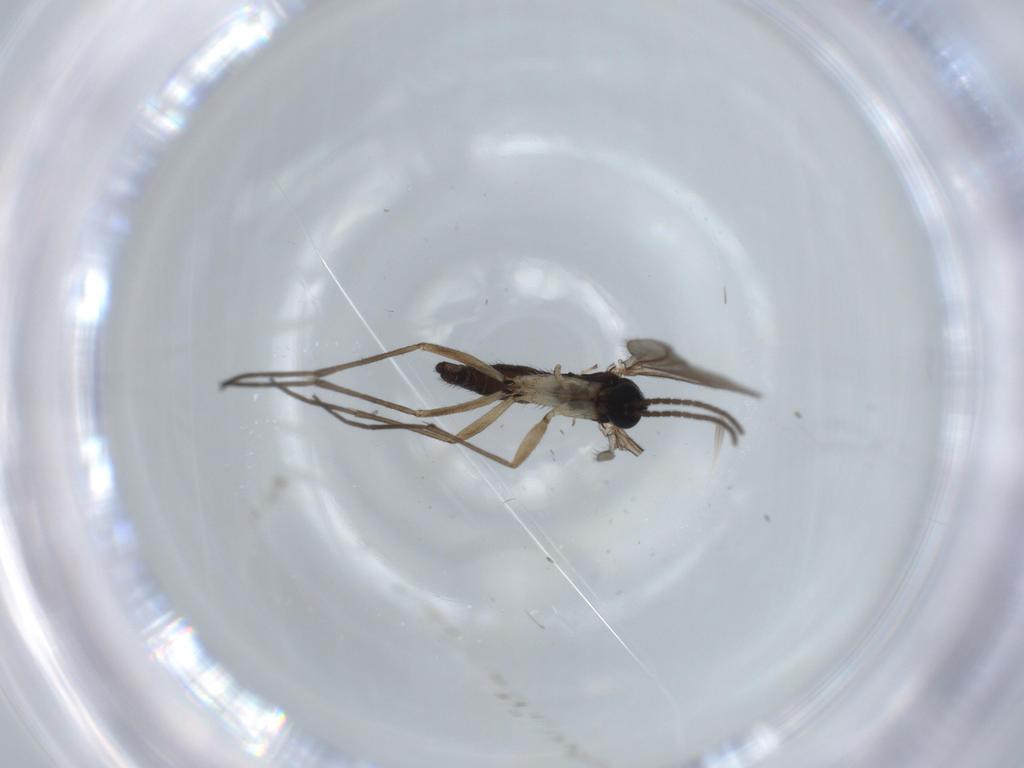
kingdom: Animalia
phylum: Arthropoda
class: Insecta
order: Diptera
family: Sciaridae
